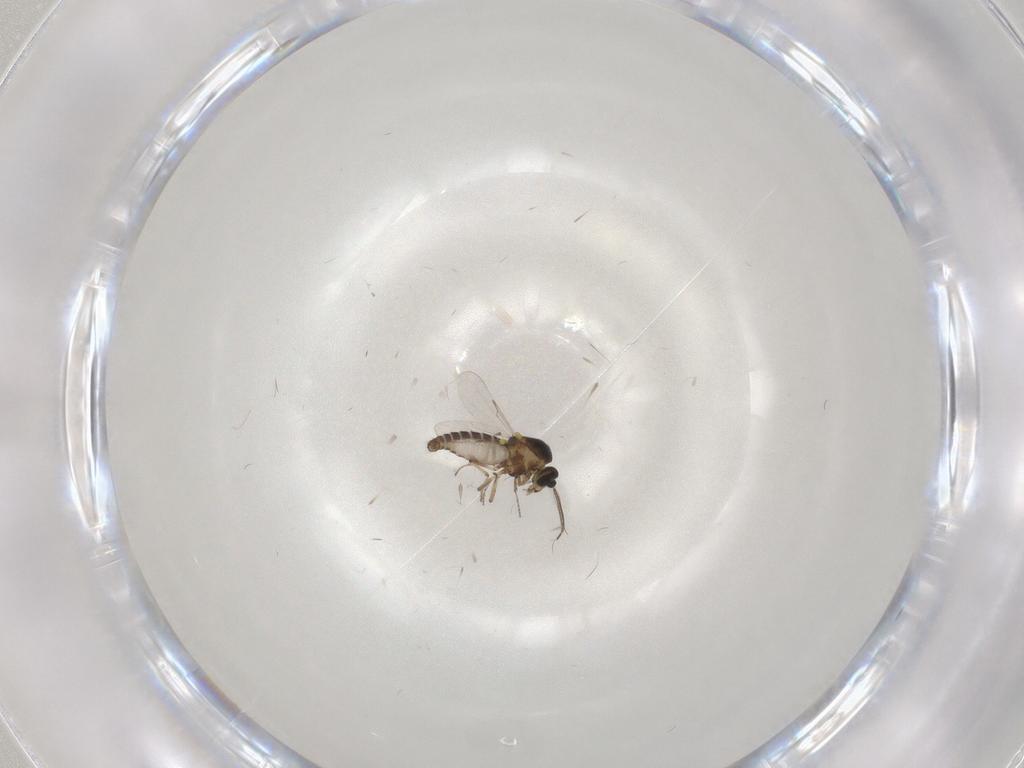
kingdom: Animalia
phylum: Arthropoda
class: Insecta
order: Diptera
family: Ceratopogonidae
